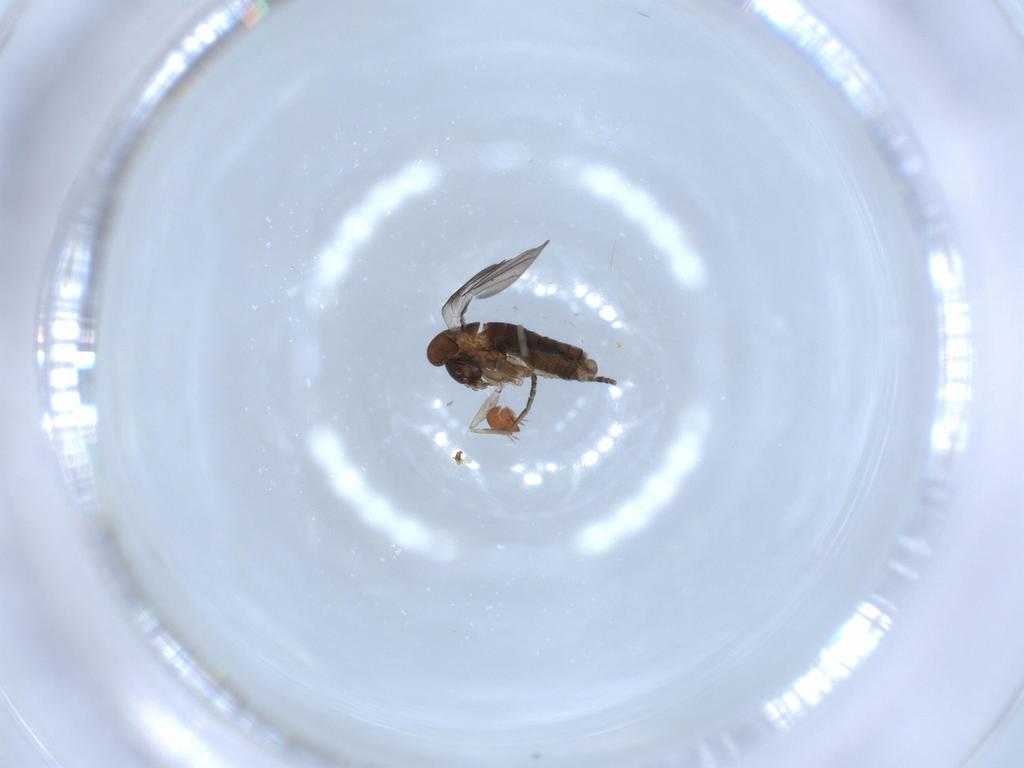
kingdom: Animalia
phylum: Arthropoda
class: Insecta
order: Diptera
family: Psychodidae
